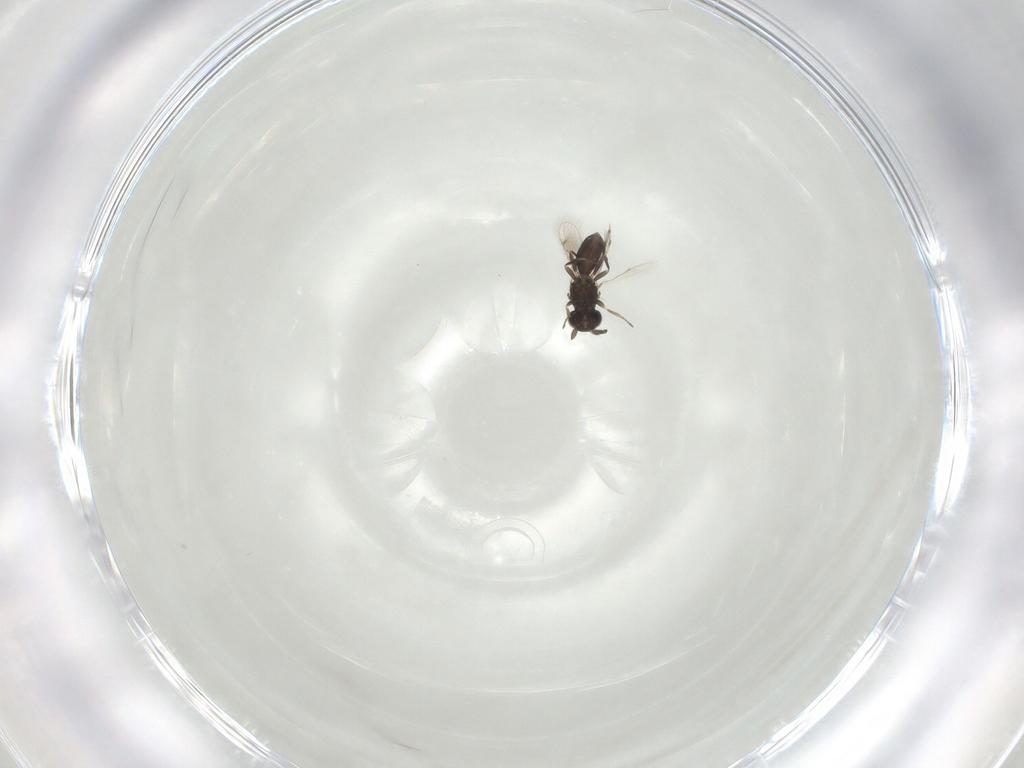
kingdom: Animalia
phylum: Arthropoda
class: Insecta
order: Hymenoptera
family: Eulophidae
